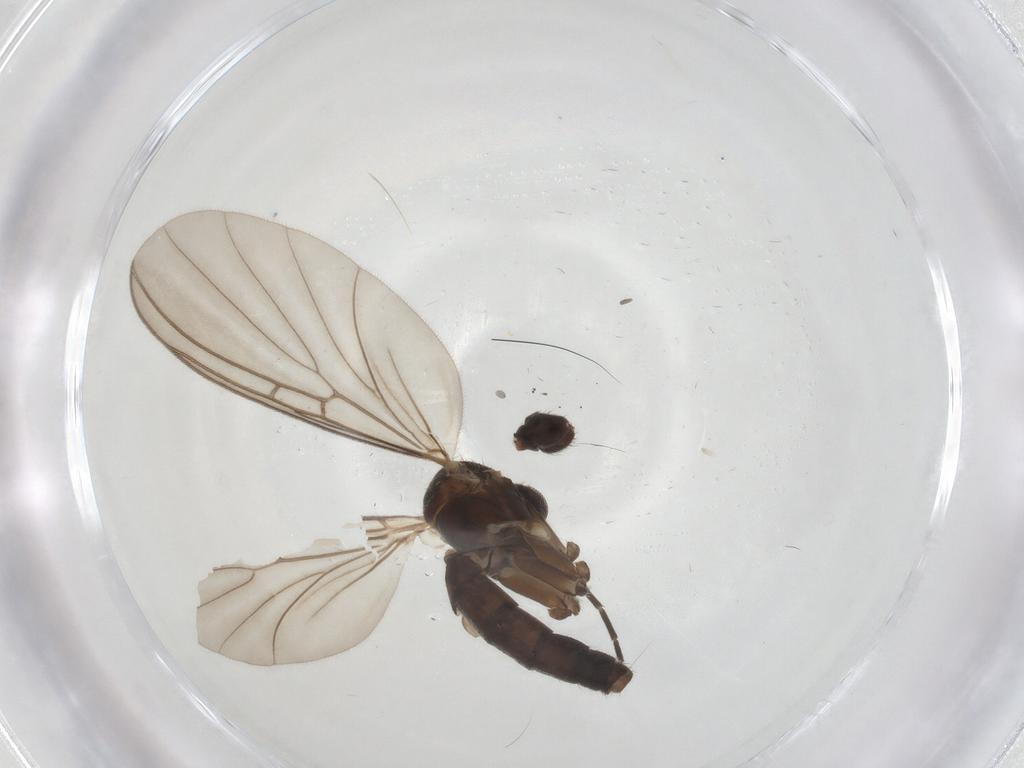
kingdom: Animalia
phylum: Arthropoda
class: Insecta
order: Diptera
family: Mycetophilidae
